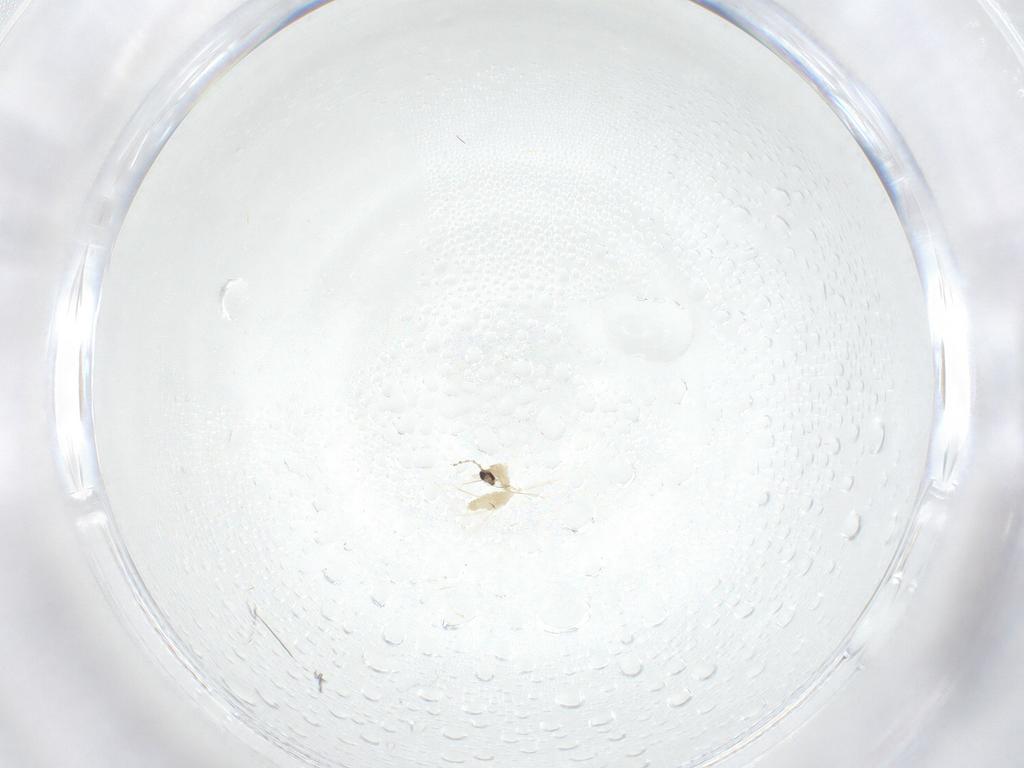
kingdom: Animalia
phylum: Arthropoda
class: Insecta
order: Diptera
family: Cecidomyiidae
